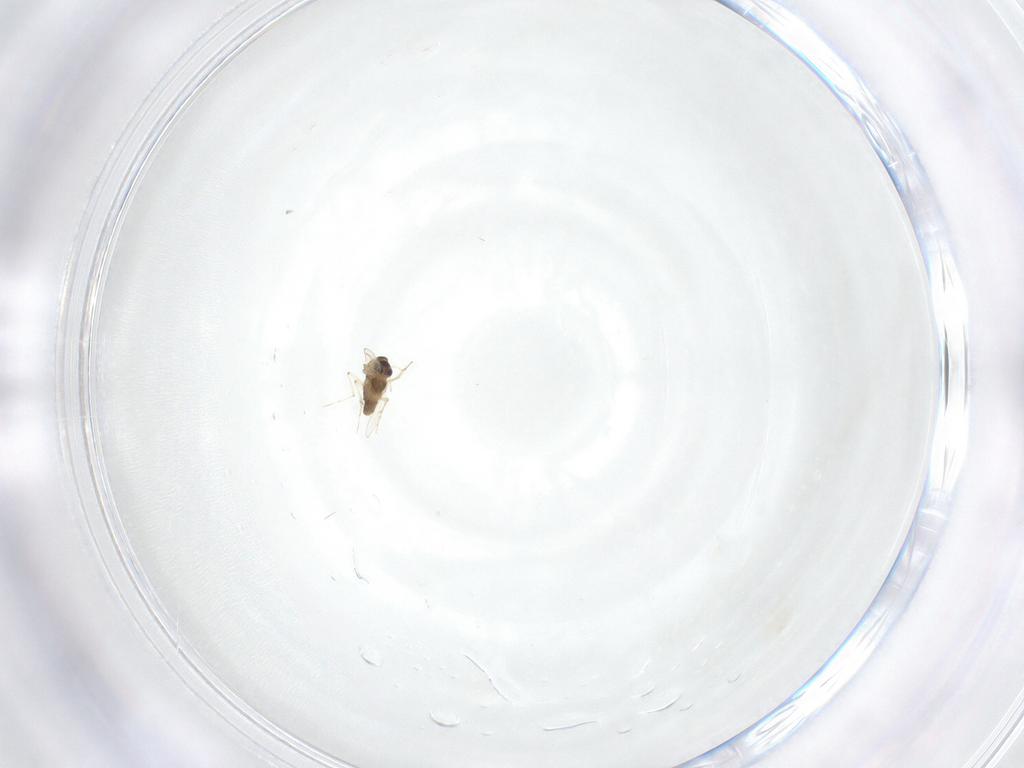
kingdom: Animalia
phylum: Arthropoda
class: Insecta
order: Diptera
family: Chironomidae
